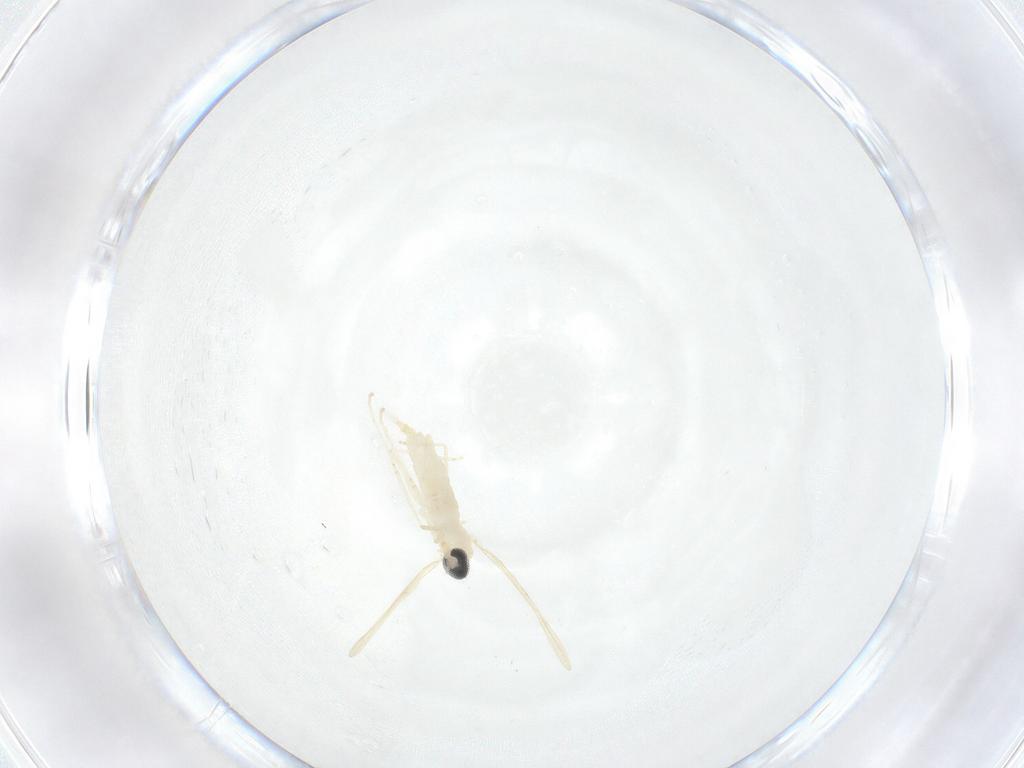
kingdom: Animalia
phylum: Arthropoda
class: Insecta
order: Diptera
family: Cecidomyiidae
